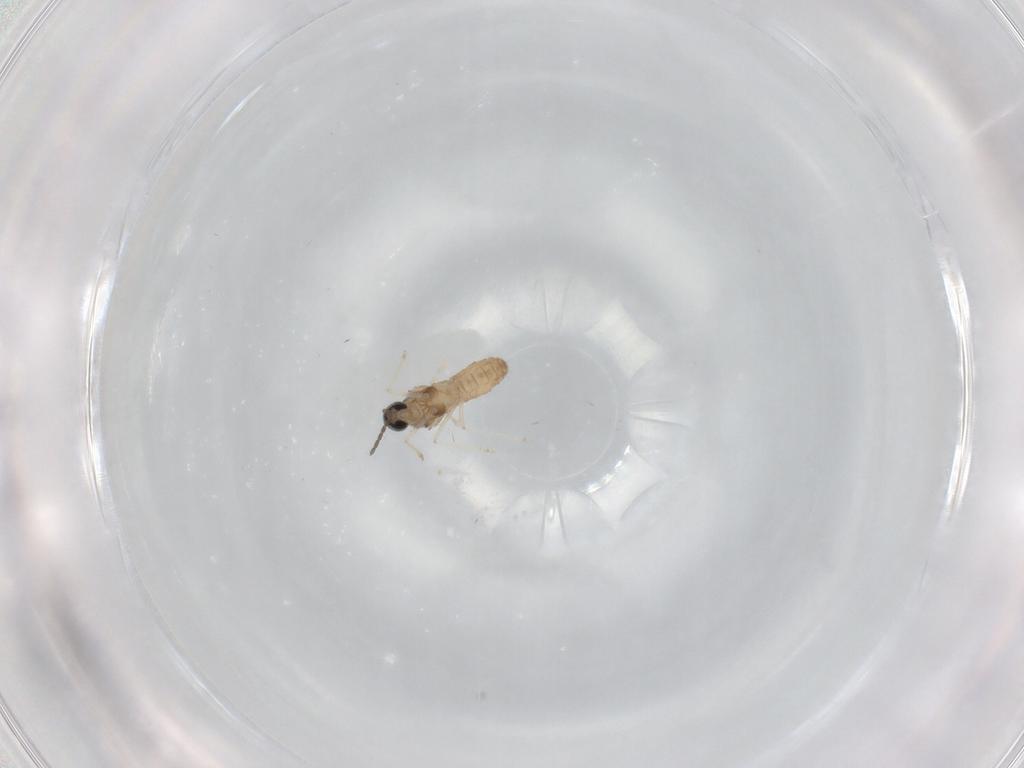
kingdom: Animalia
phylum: Arthropoda
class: Insecta
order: Diptera
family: Cecidomyiidae
